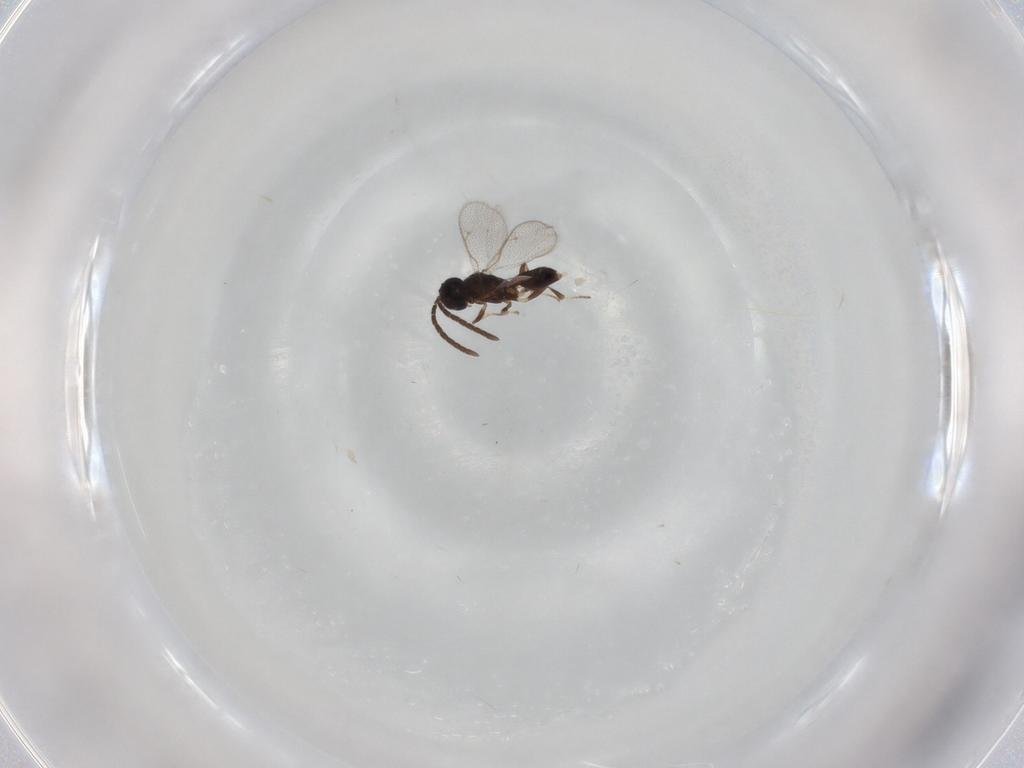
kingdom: Animalia
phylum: Arthropoda
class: Insecta
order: Hymenoptera
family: Eupelmidae
